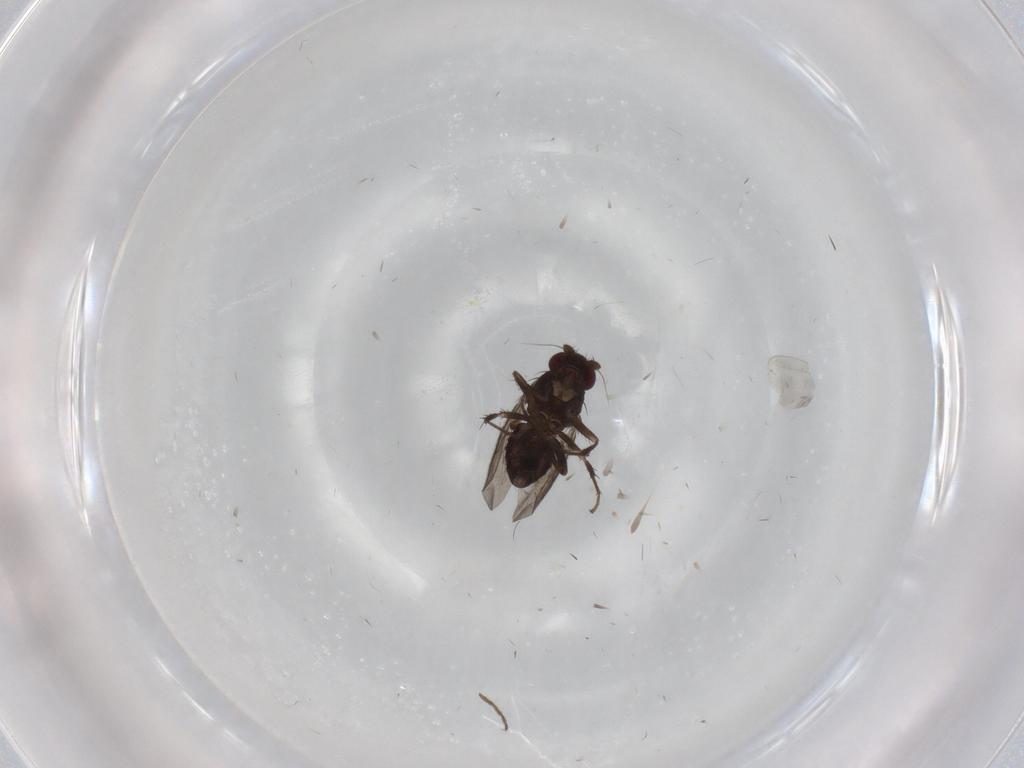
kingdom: Animalia
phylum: Arthropoda
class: Insecta
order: Diptera
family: Sphaeroceridae
